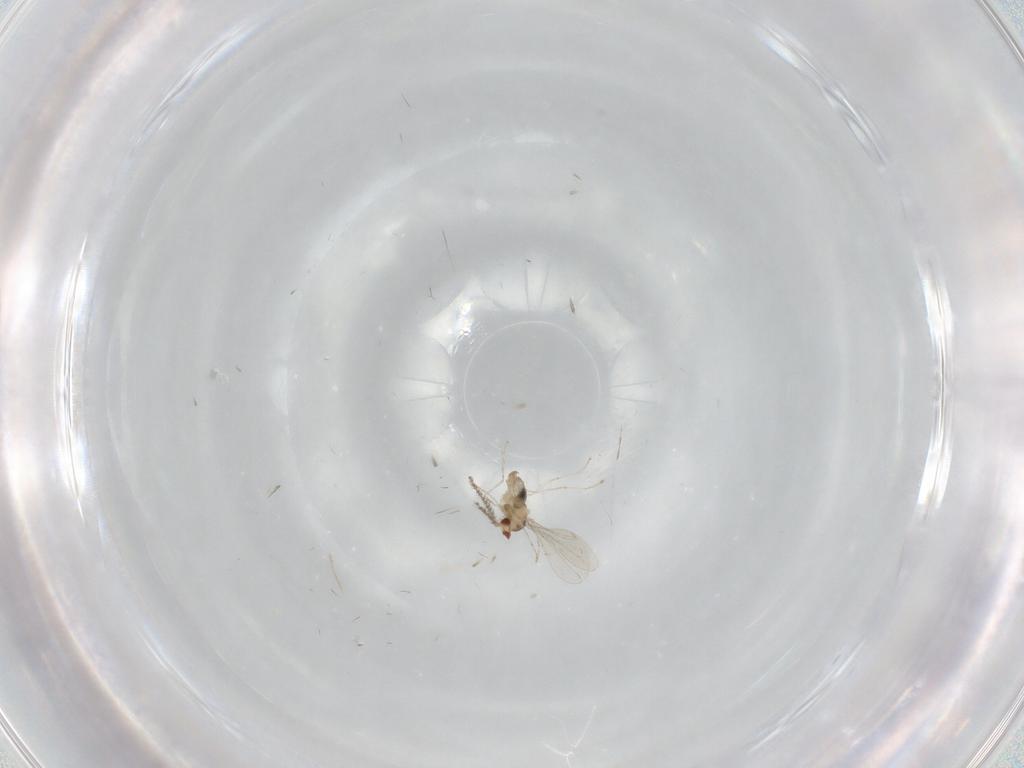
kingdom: Animalia
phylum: Arthropoda
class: Insecta
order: Diptera
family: Cecidomyiidae
